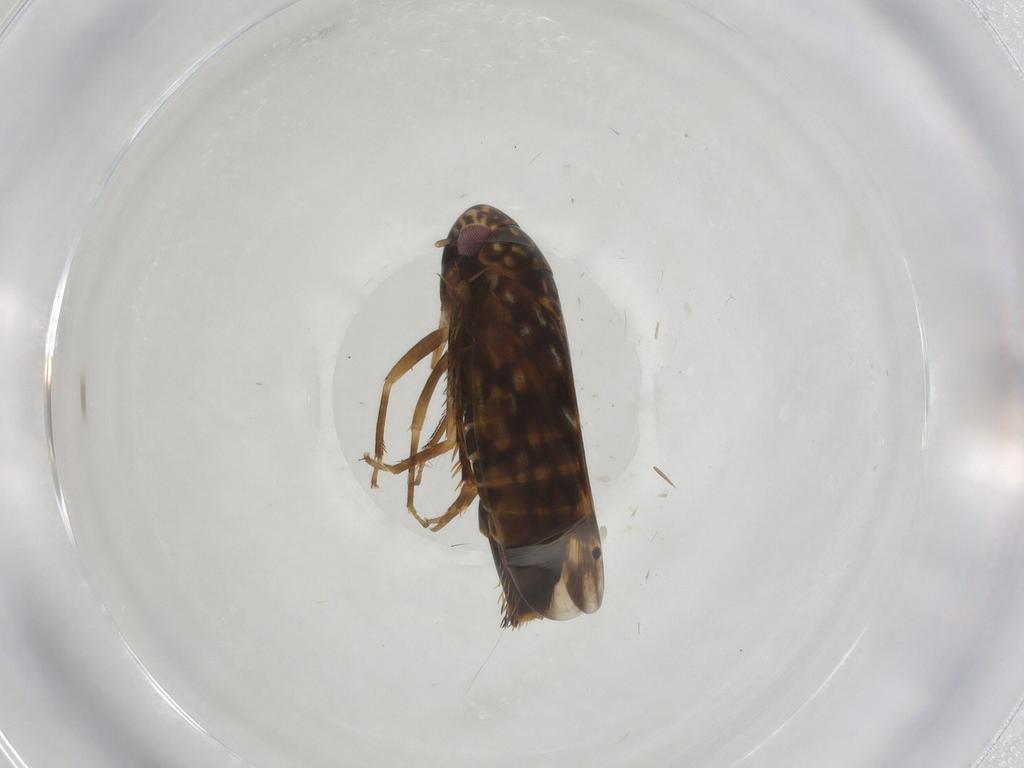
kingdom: Animalia
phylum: Arthropoda
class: Insecta
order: Hemiptera
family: Cicadellidae
